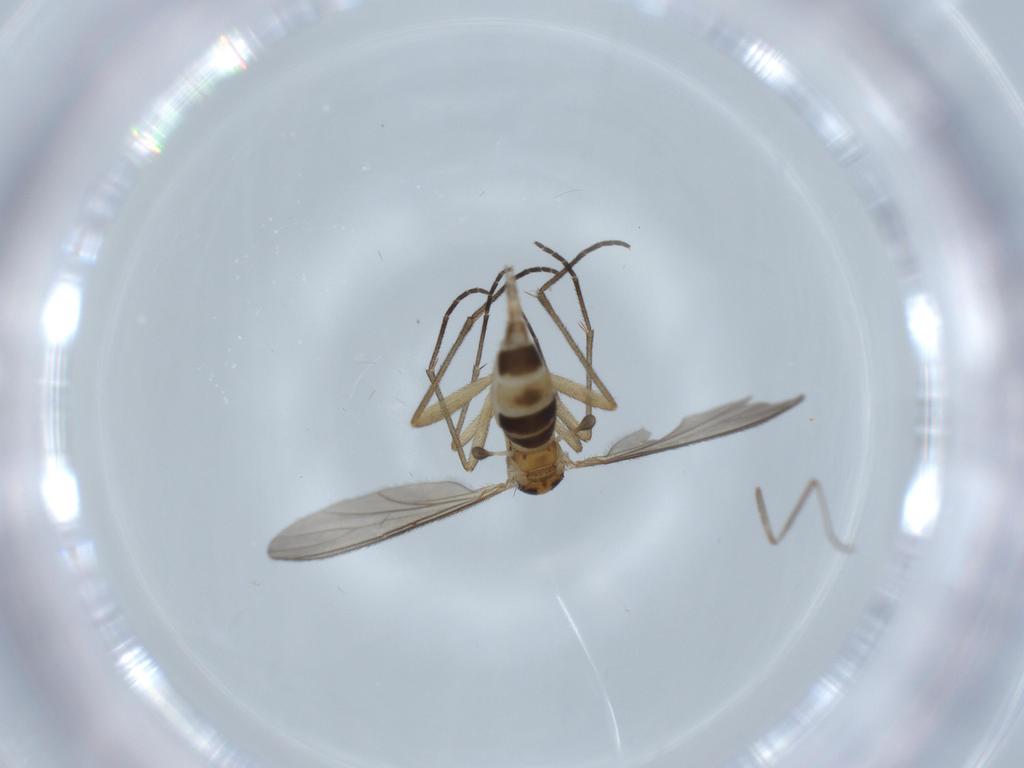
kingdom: Animalia
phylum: Arthropoda
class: Insecta
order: Diptera
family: Cecidomyiidae
